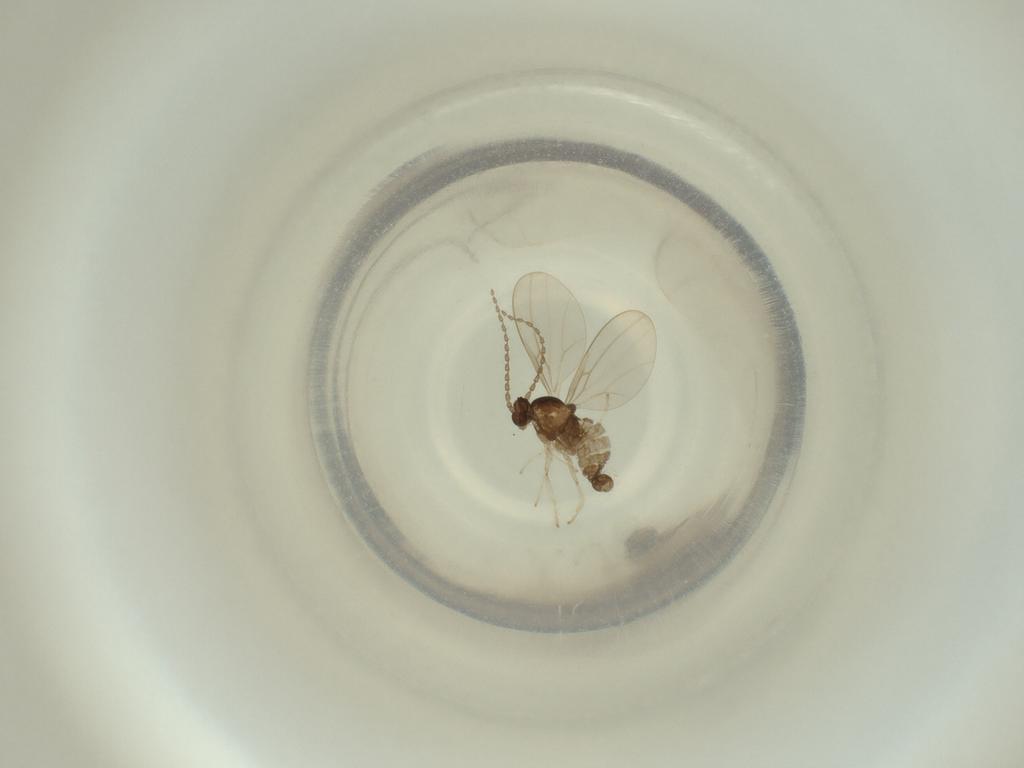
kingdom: Animalia
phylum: Arthropoda
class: Insecta
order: Diptera
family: Cecidomyiidae
